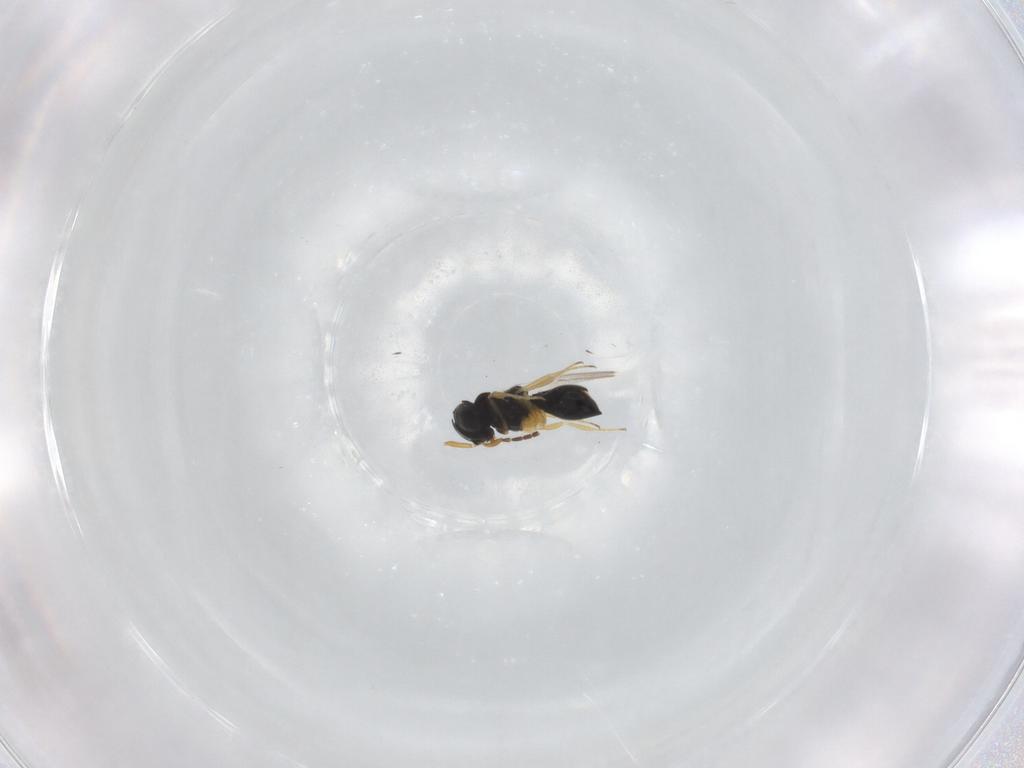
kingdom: Animalia
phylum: Arthropoda
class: Insecta
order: Hymenoptera
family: Scelionidae
